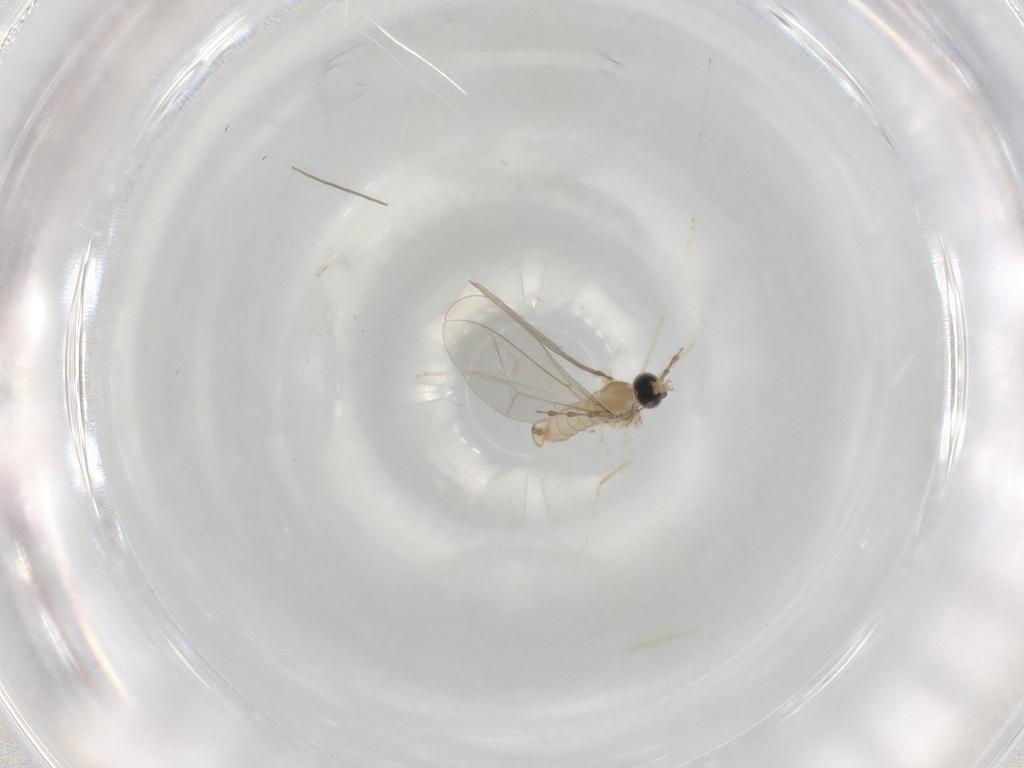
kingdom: Animalia
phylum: Arthropoda
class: Insecta
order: Diptera
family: Cecidomyiidae
